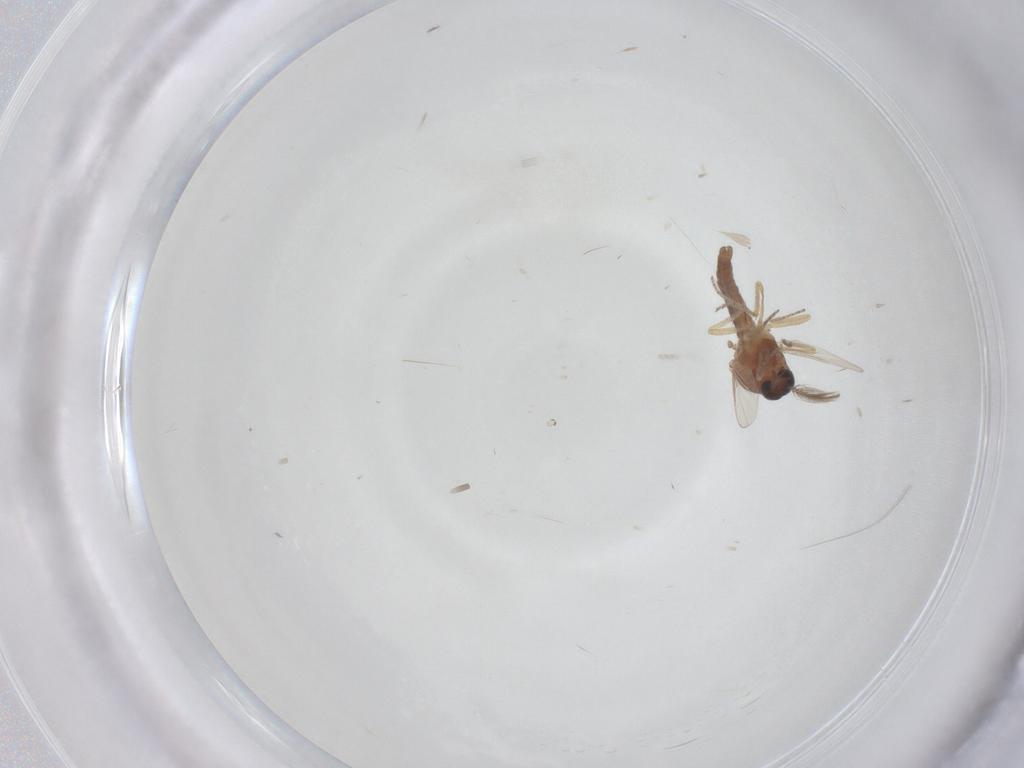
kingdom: Animalia
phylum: Arthropoda
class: Insecta
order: Diptera
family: Ceratopogonidae
